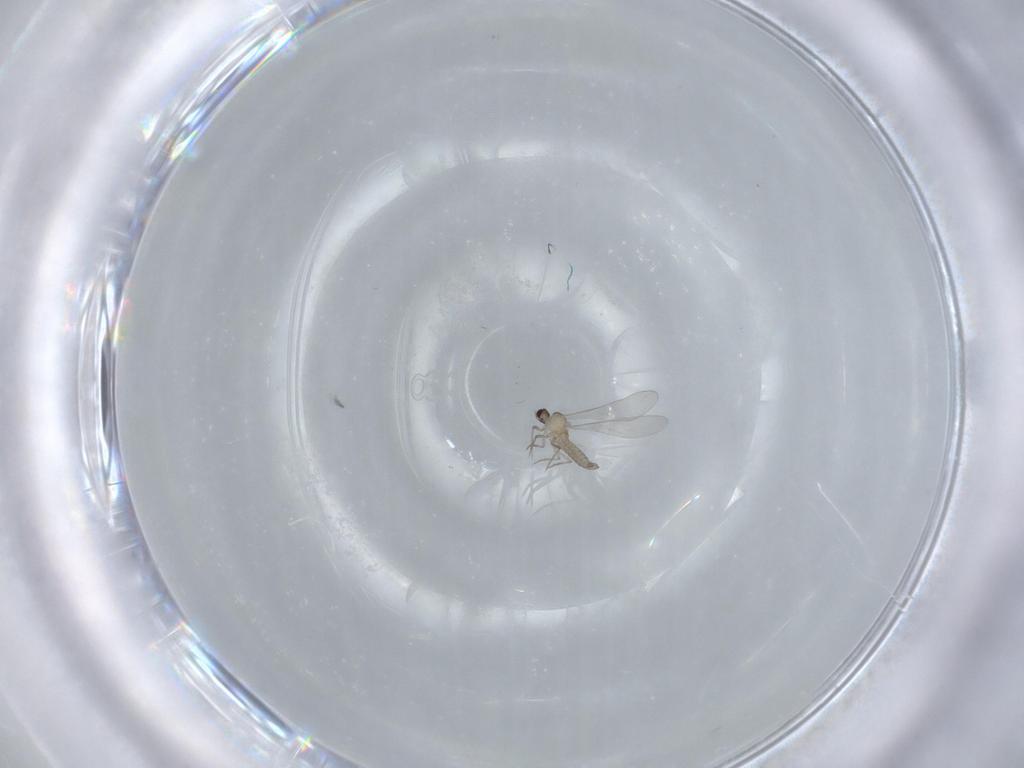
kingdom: Animalia
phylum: Arthropoda
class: Insecta
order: Diptera
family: Cecidomyiidae
